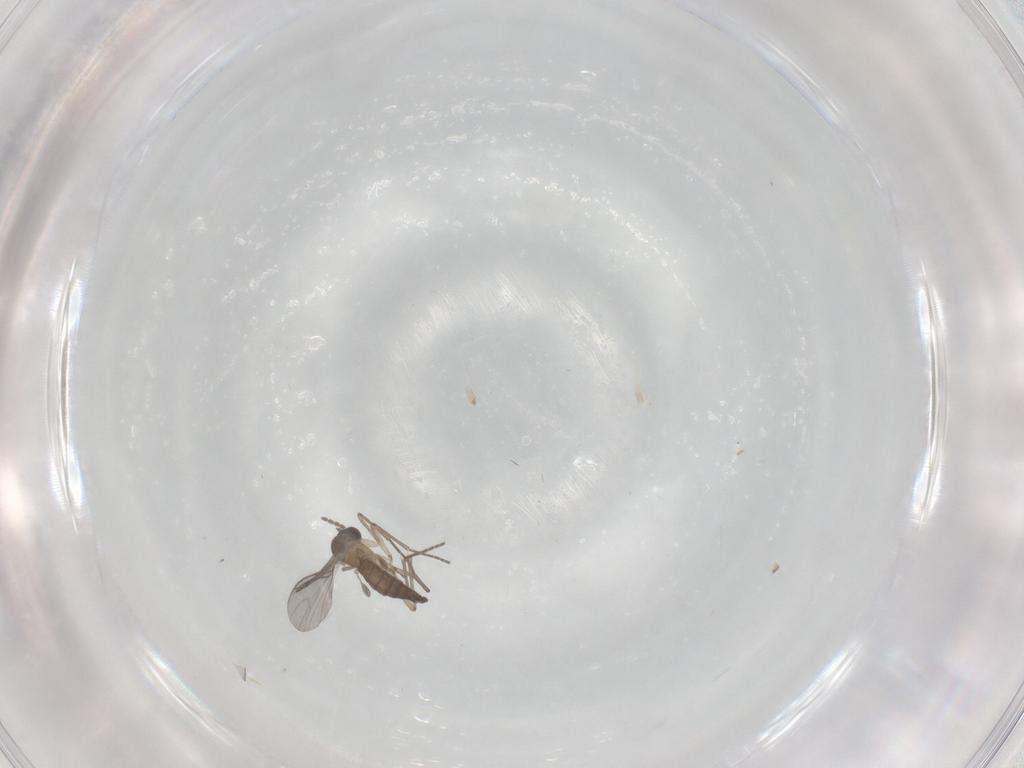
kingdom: Animalia
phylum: Arthropoda
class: Insecta
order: Diptera
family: Sciaridae
